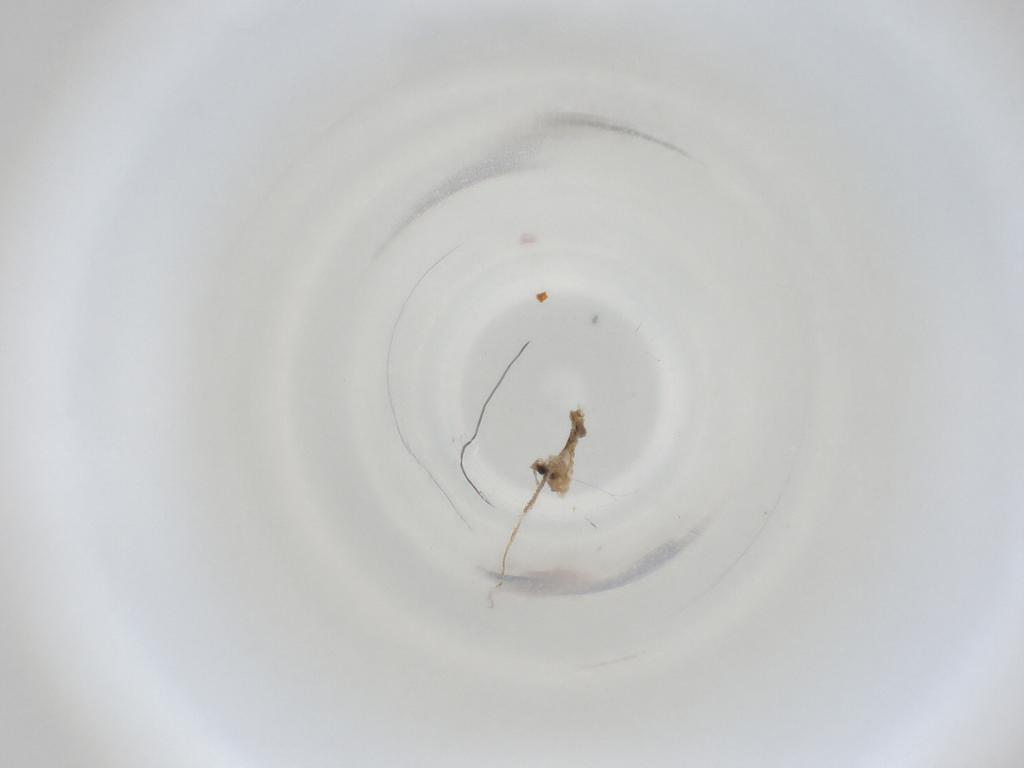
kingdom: Animalia
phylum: Arthropoda
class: Insecta
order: Diptera
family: Cecidomyiidae
